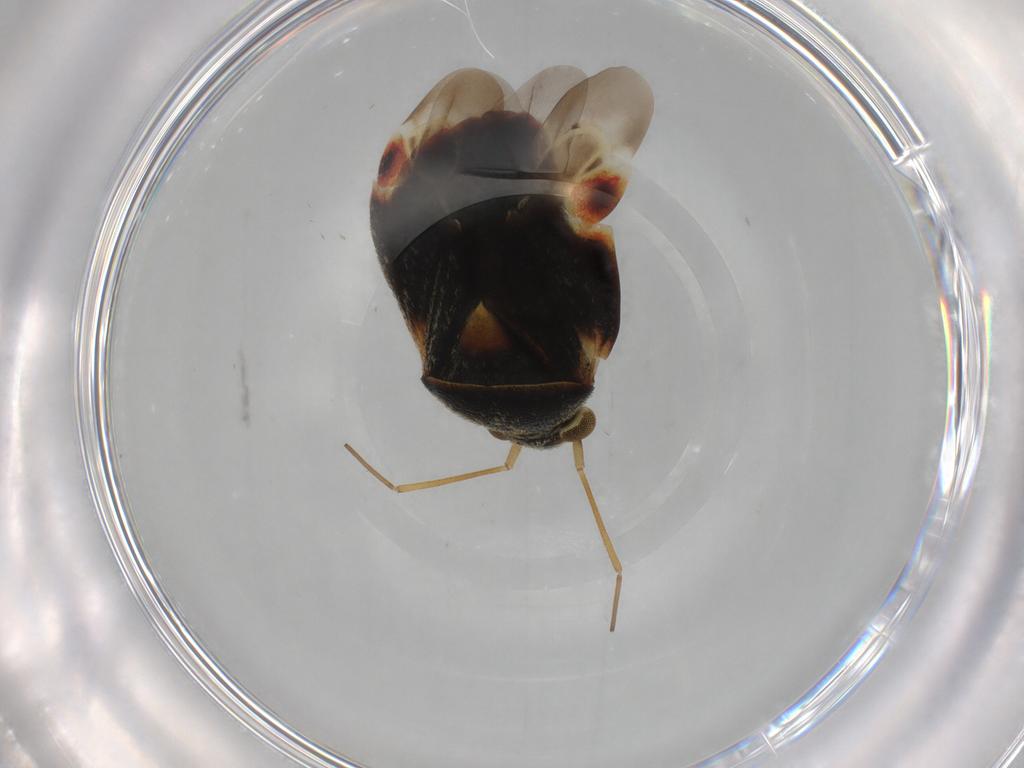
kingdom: Animalia
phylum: Arthropoda
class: Insecta
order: Hemiptera
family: Miridae
